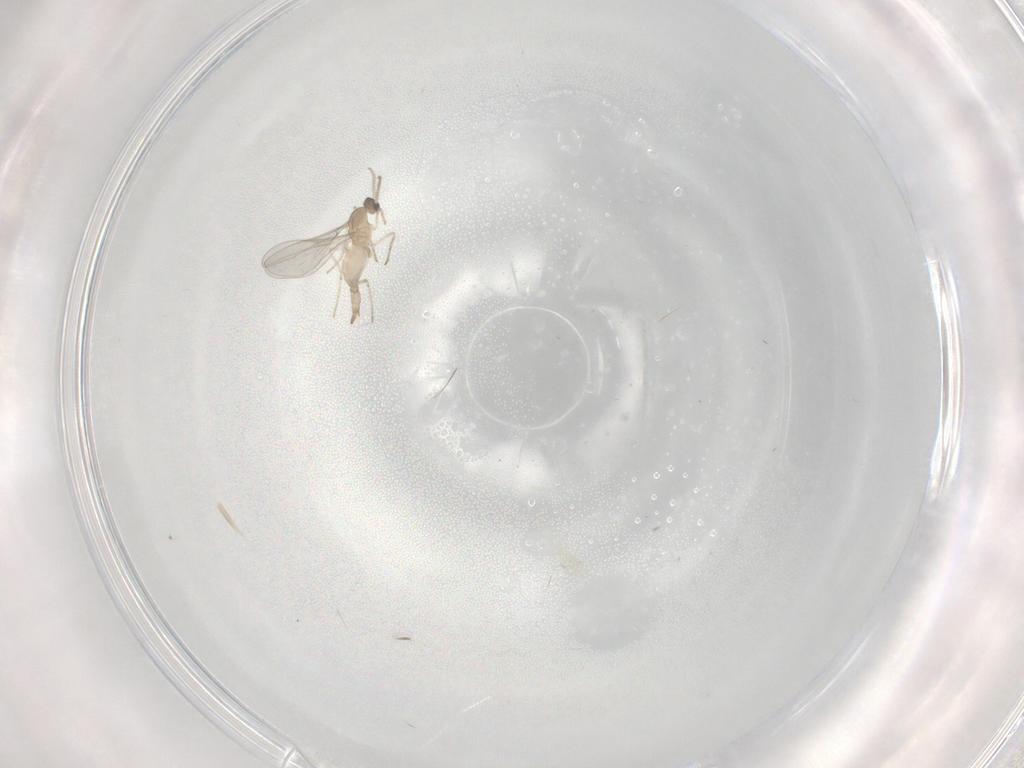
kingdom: Animalia
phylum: Arthropoda
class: Insecta
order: Diptera
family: Cecidomyiidae
